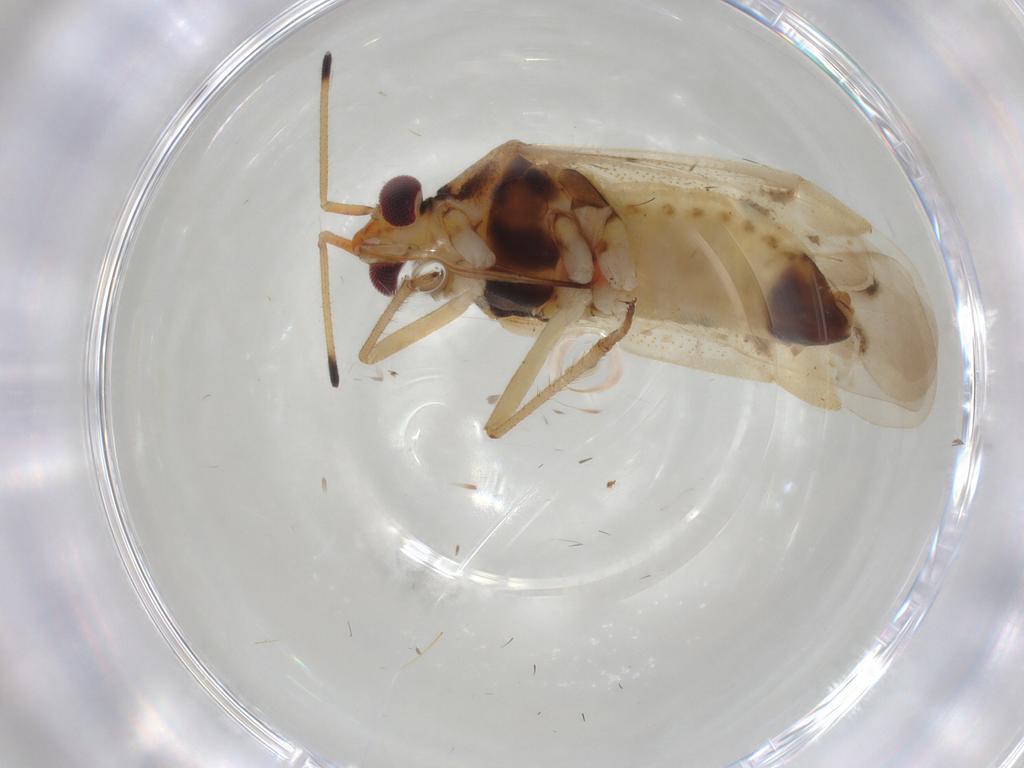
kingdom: Animalia
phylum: Arthropoda
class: Insecta
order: Hemiptera
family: Miridae
